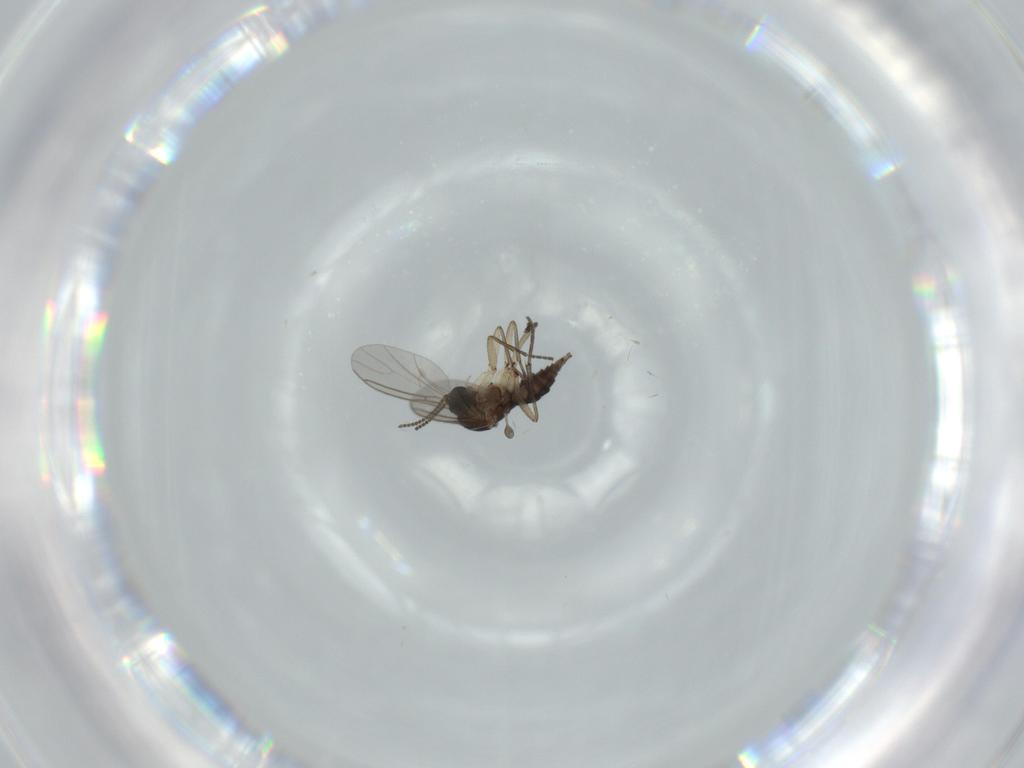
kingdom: Animalia
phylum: Arthropoda
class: Insecta
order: Diptera
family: Sciaridae
